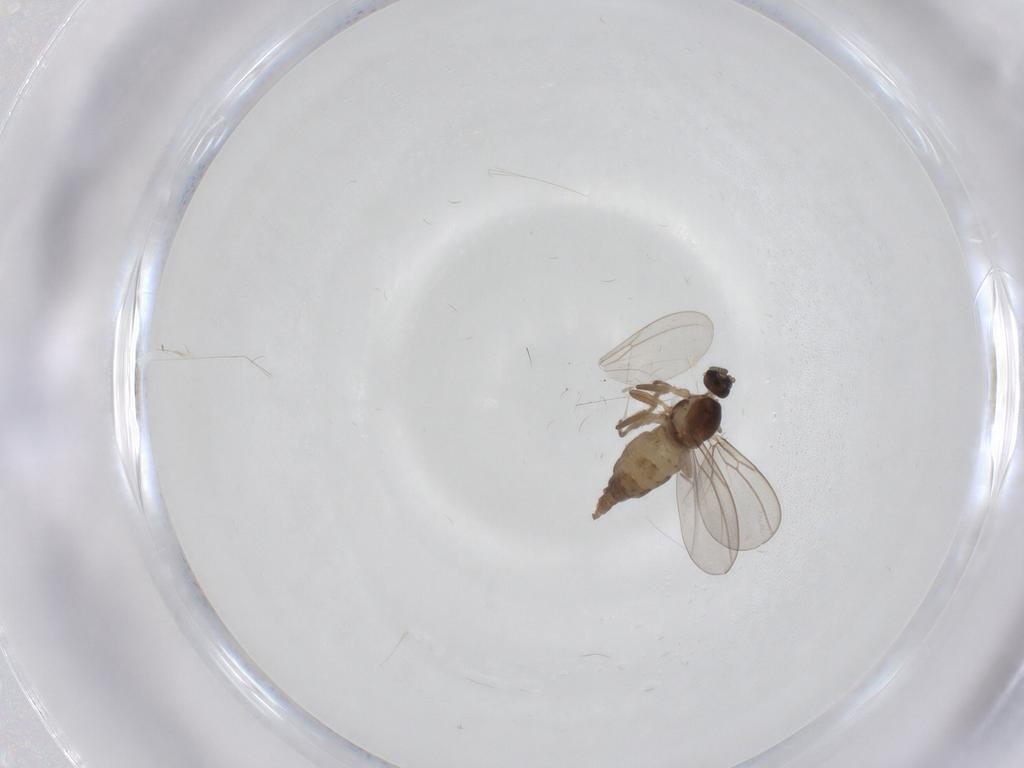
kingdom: Animalia
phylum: Arthropoda
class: Insecta
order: Diptera
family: Cecidomyiidae
